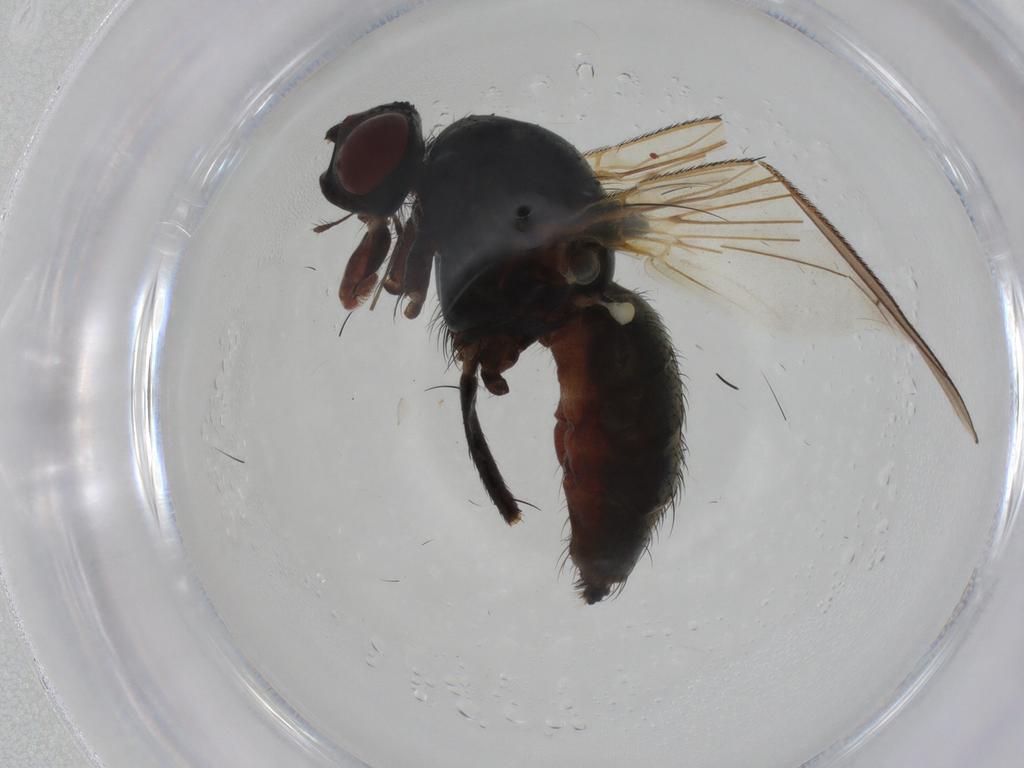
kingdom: Animalia
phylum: Arthropoda
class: Insecta
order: Diptera
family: Anthomyiidae
